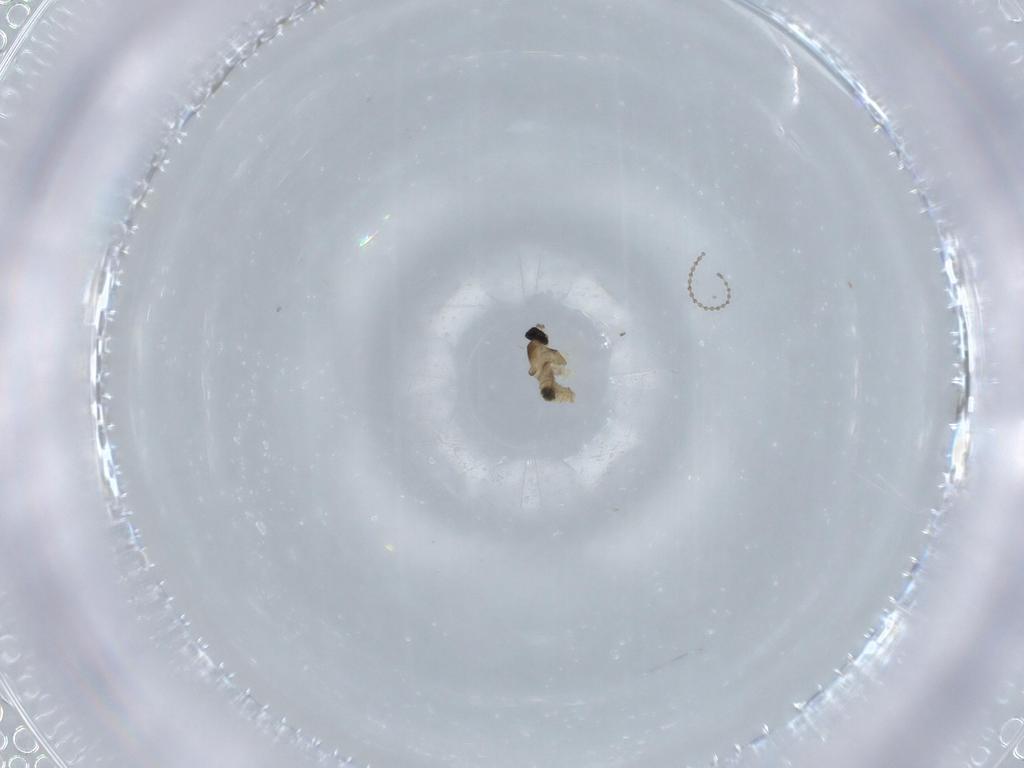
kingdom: Animalia
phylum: Arthropoda
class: Insecta
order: Diptera
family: Cecidomyiidae
